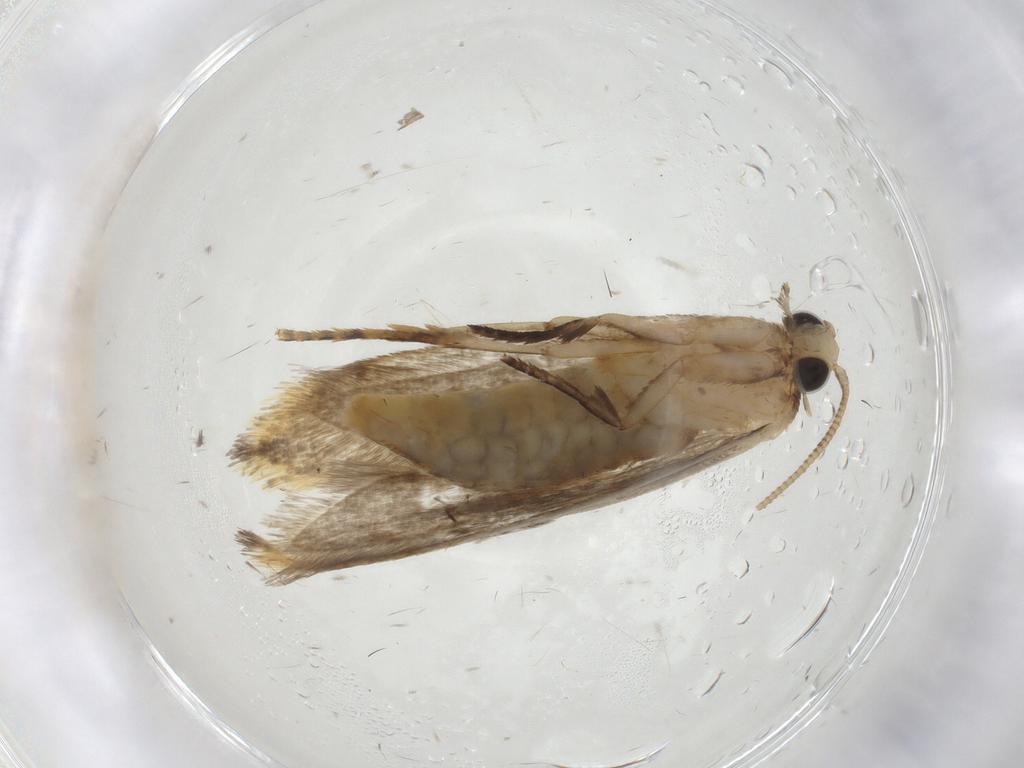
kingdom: Animalia
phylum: Arthropoda
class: Insecta
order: Lepidoptera
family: Tineidae
